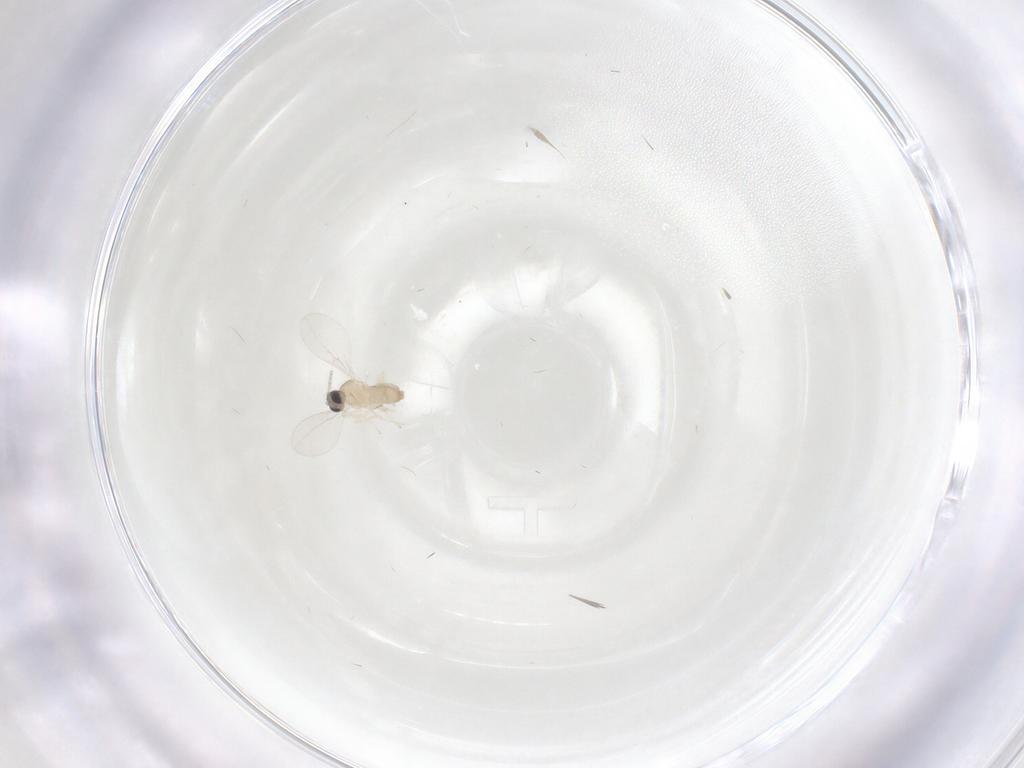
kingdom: Animalia
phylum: Arthropoda
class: Insecta
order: Diptera
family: Cecidomyiidae
